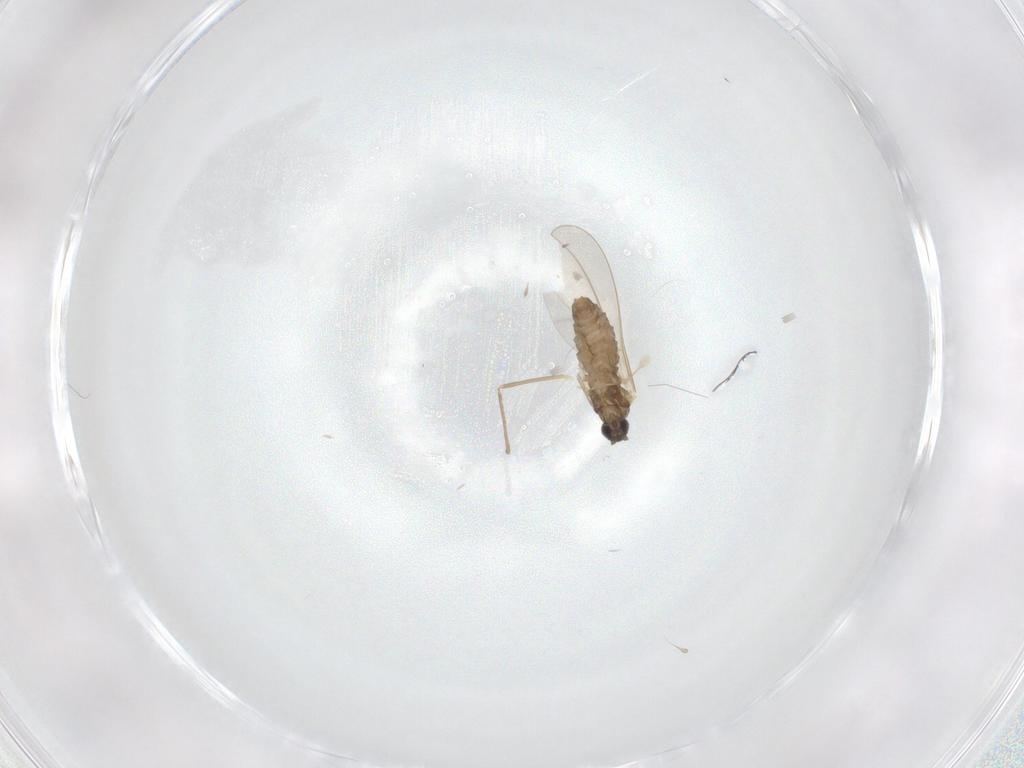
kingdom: Animalia
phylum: Arthropoda
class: Insecta
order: Diptera
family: Cecidomyiidae
